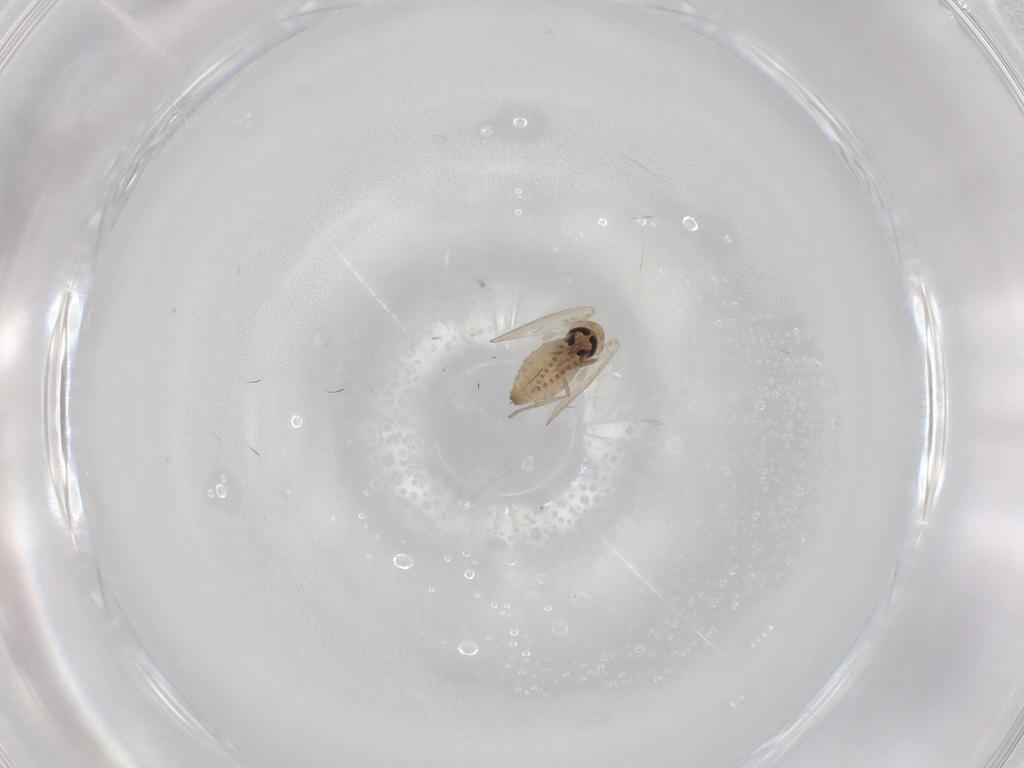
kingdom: Animalia
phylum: Arthropoda
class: Insecta
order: Diptera
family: Psychodidae
